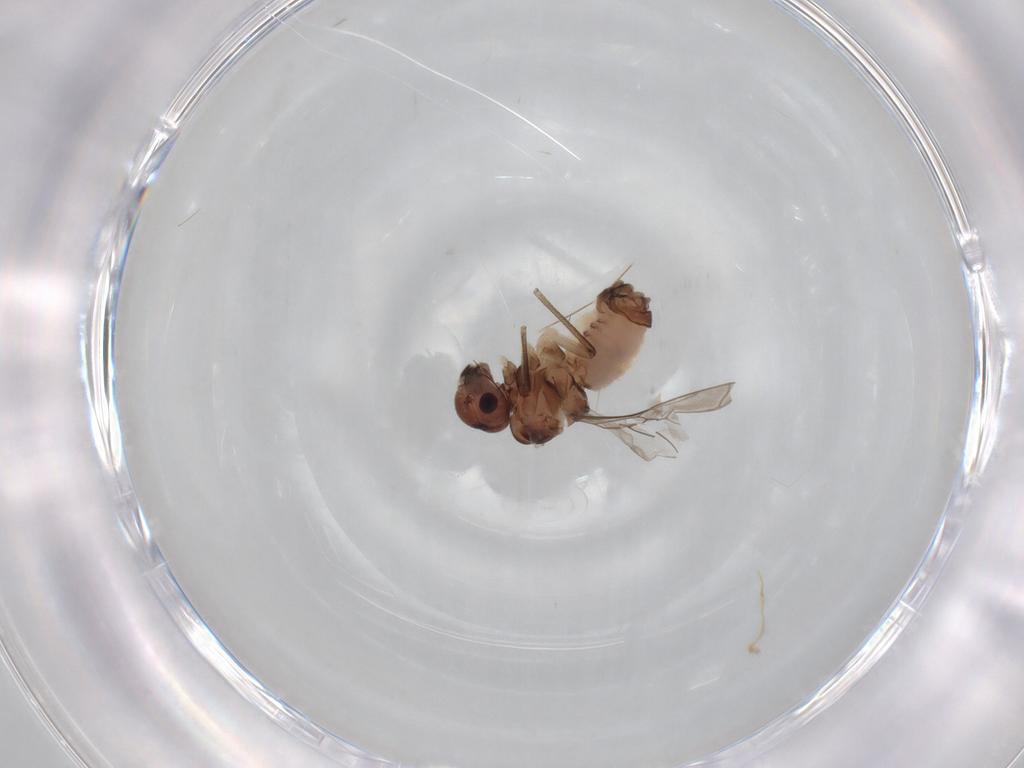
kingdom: Animalia
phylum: Arthropoda
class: Insecta
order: Psocodea
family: Peripsocidae
